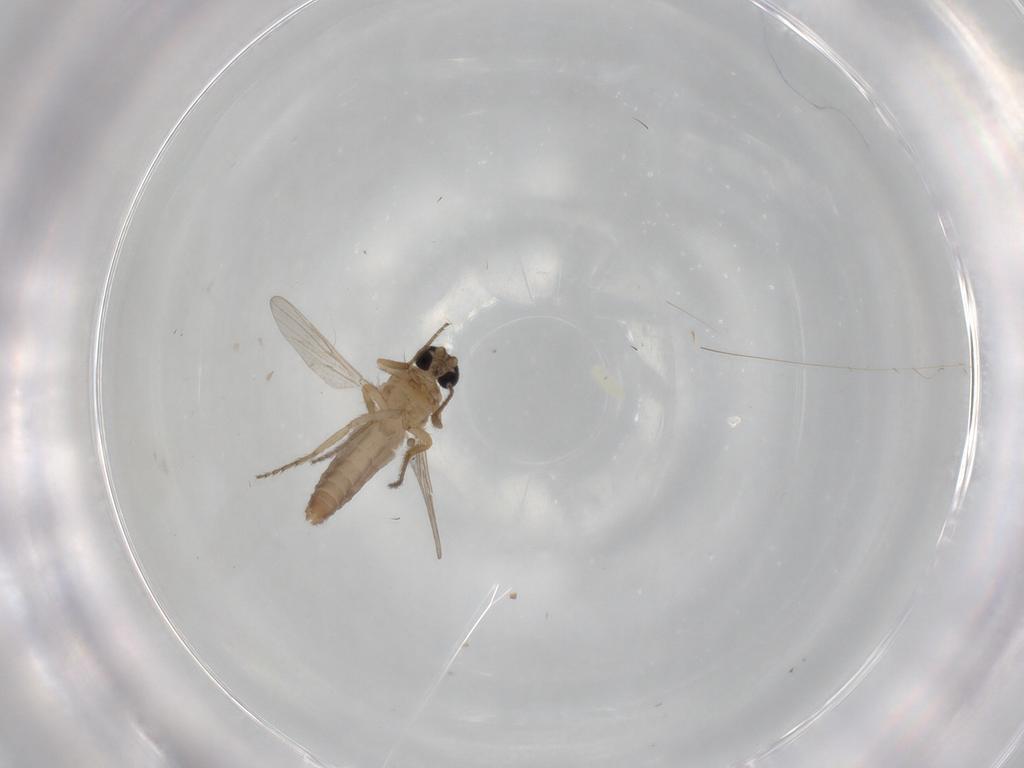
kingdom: Animalia
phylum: Arthropoda
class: Insecta
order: Diptera
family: Ceratopogonidae
